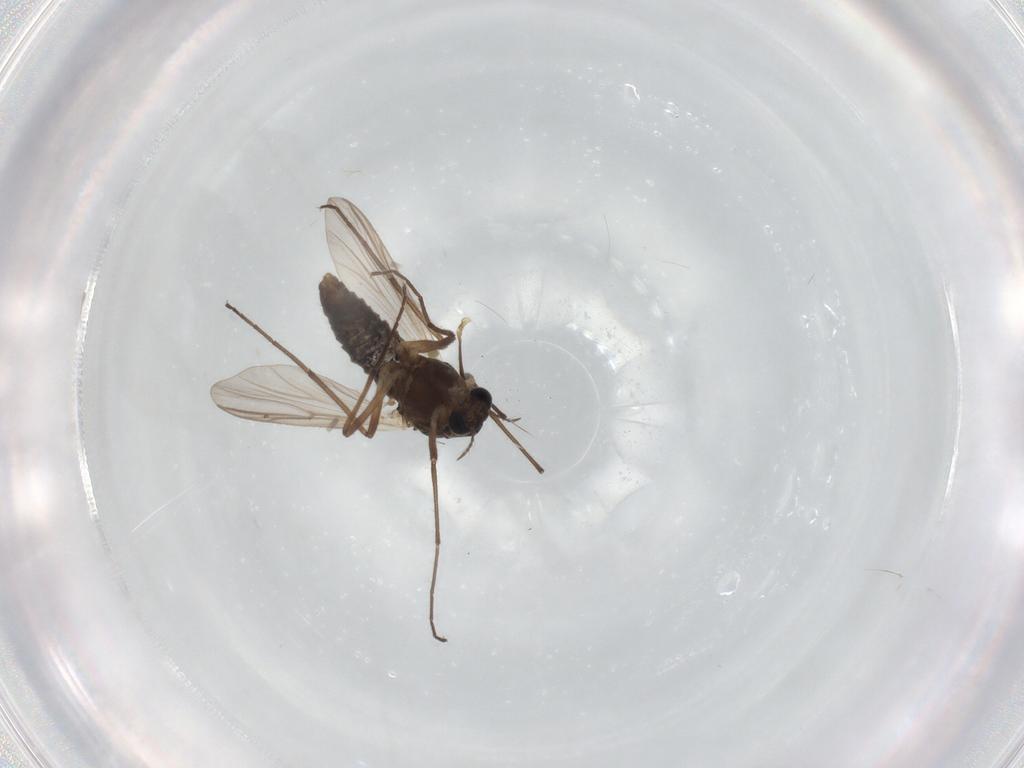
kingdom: Animalia
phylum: Arthropoda
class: Insecta
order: Diptera
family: Chironomidae
